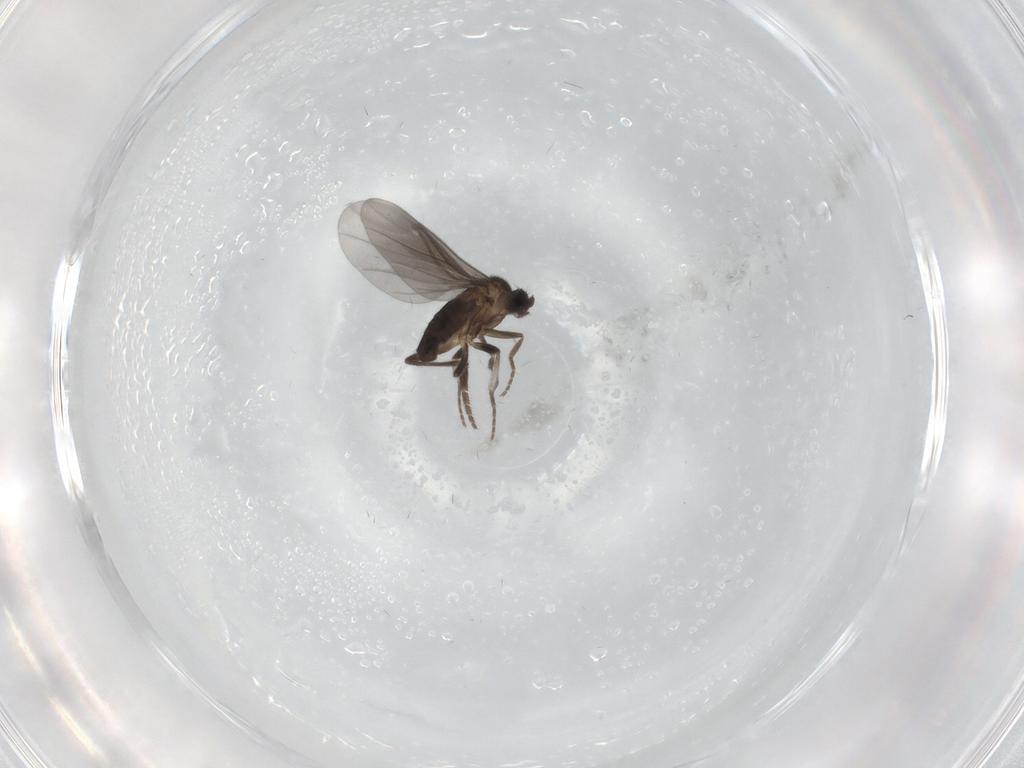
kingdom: Animalia
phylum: Arthropoda
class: Insecta
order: Diptera
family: Phoridae
